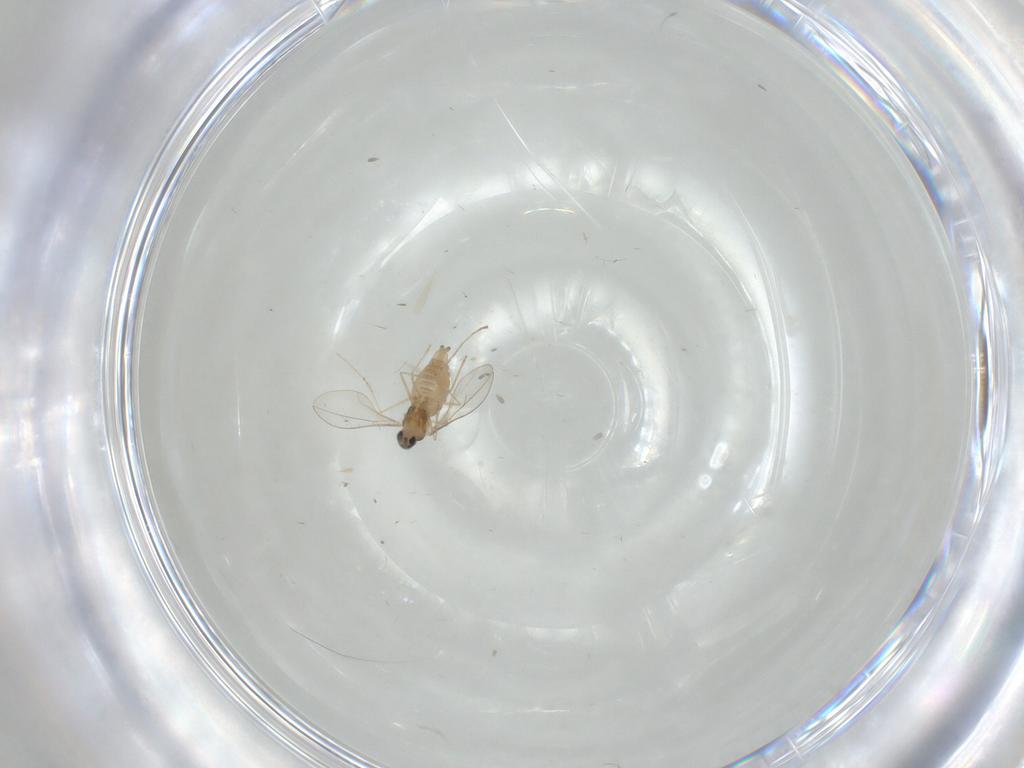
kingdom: Animalia
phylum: Arthropoda
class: Insecta
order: Diptera
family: Cecidomyiidae
